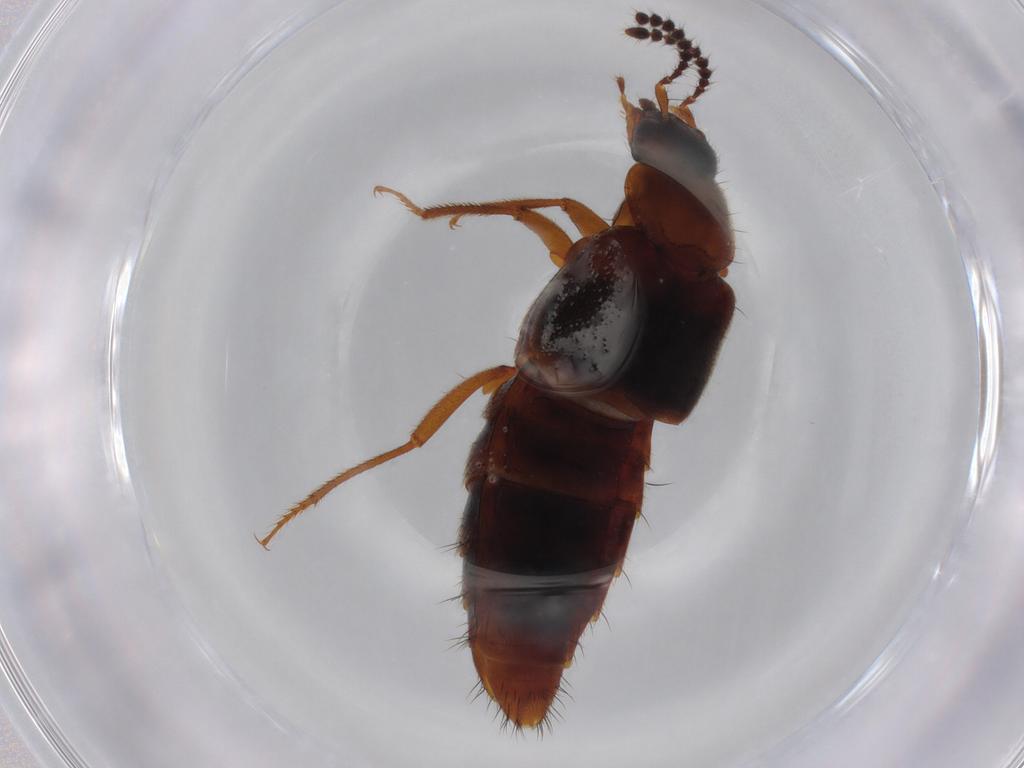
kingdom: Animalia
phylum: Arthropoda
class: Insecta
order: Coleoptera
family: Staphylinidae
